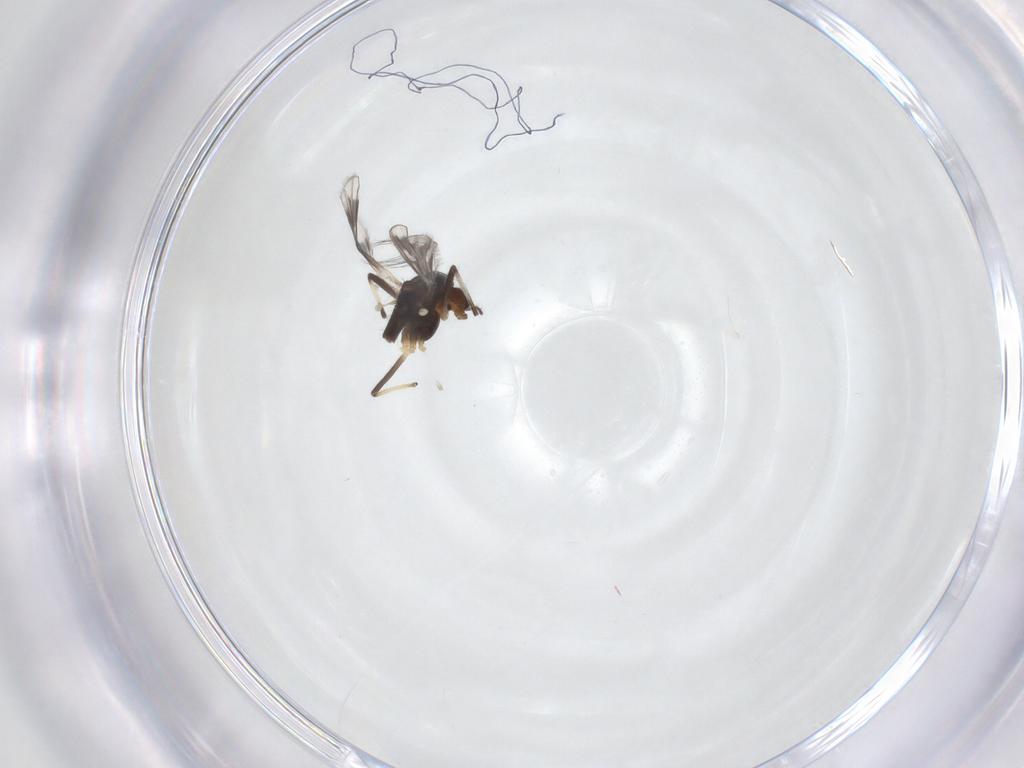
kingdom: Animalia
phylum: Arthropoda
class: Insecta
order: Diptera
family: Chironomidae
